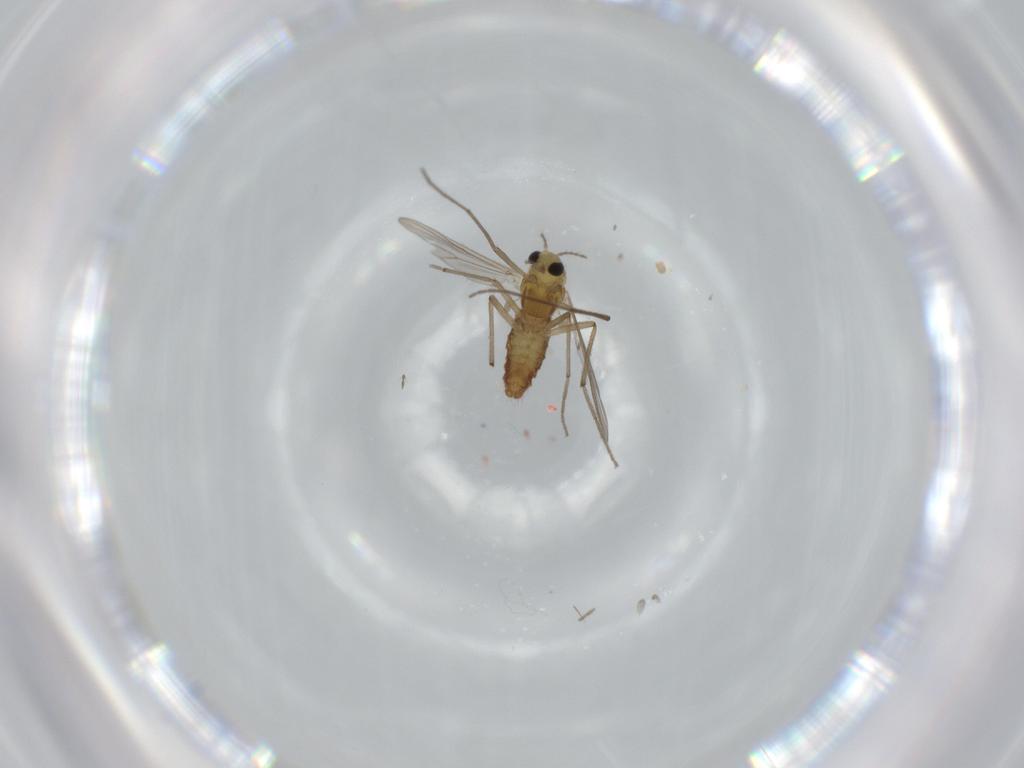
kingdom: Animalia
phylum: Arthropoda
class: Insecta
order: Diptera
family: Chironomidae
